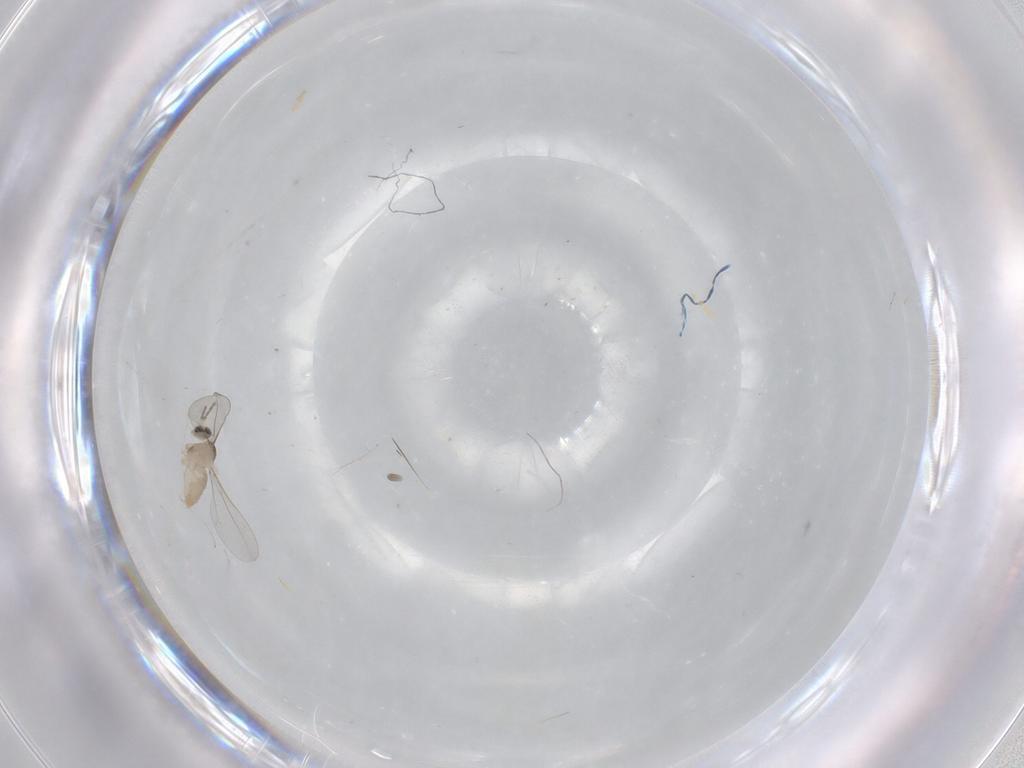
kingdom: Animalia
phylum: Arthropoda
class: Insecta
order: Diptera
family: Cecidomyiidae
